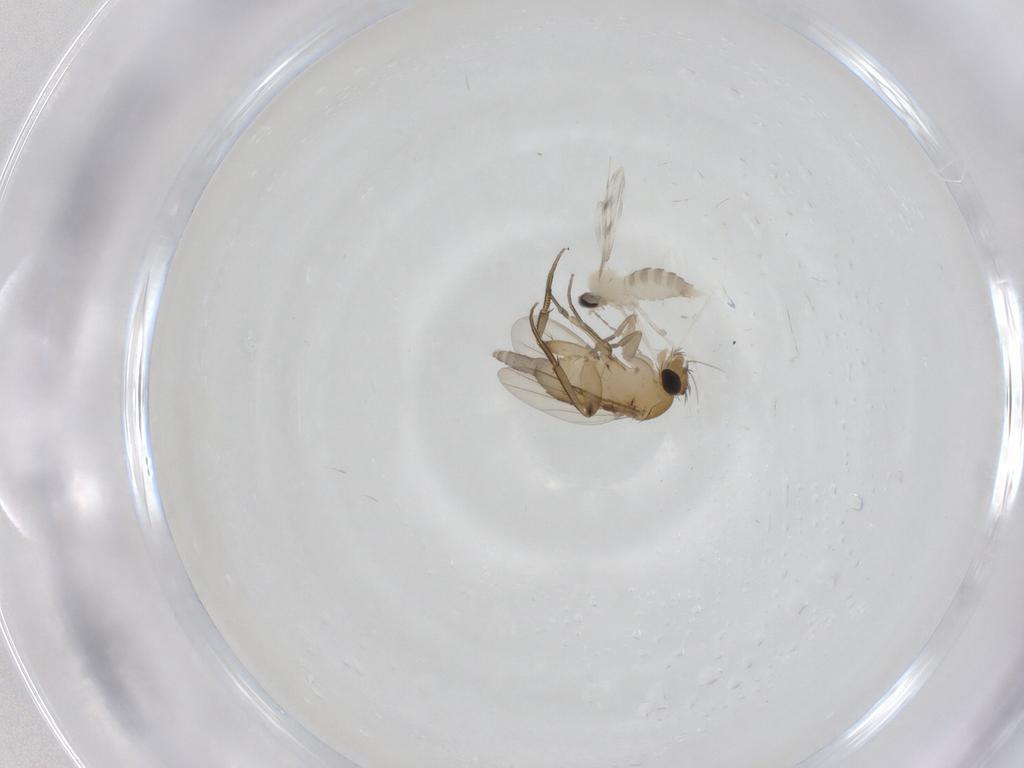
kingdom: Animalia
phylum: Arthropoda
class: Insecta
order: Diptera
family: Phoridae
